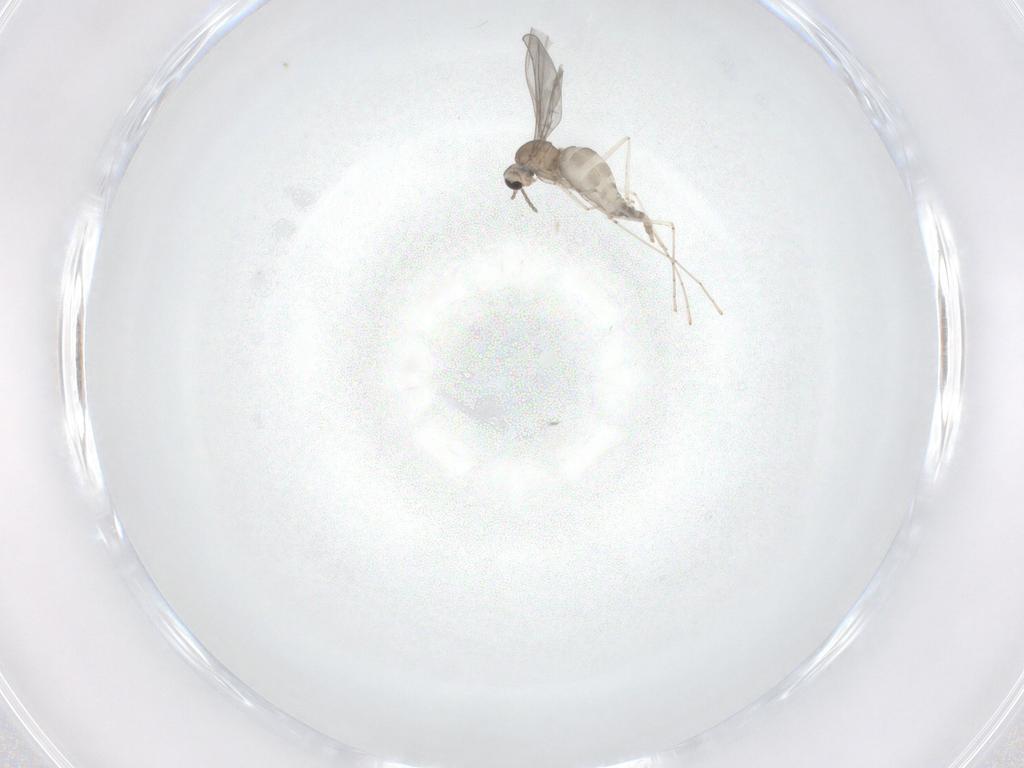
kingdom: Animalia
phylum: Arthropoda
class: Insecta
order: Diptera
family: Cecidomyiidae
